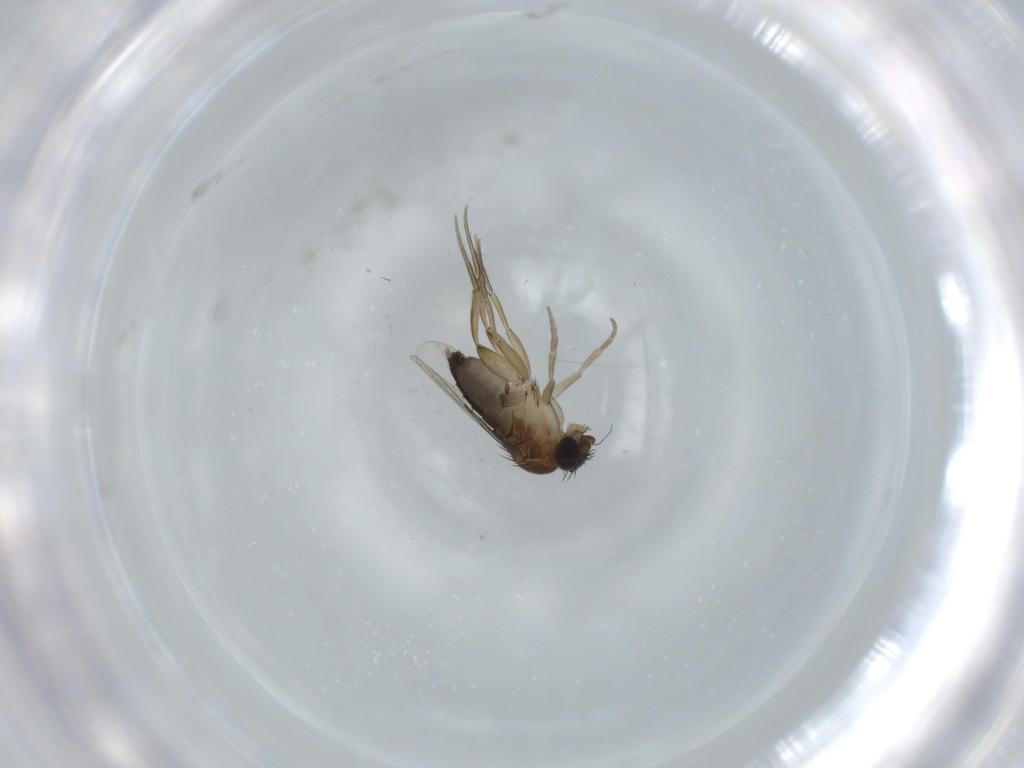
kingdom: Animalia
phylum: Arthropoda
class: Insecta
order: Diptera
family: Phoridae
